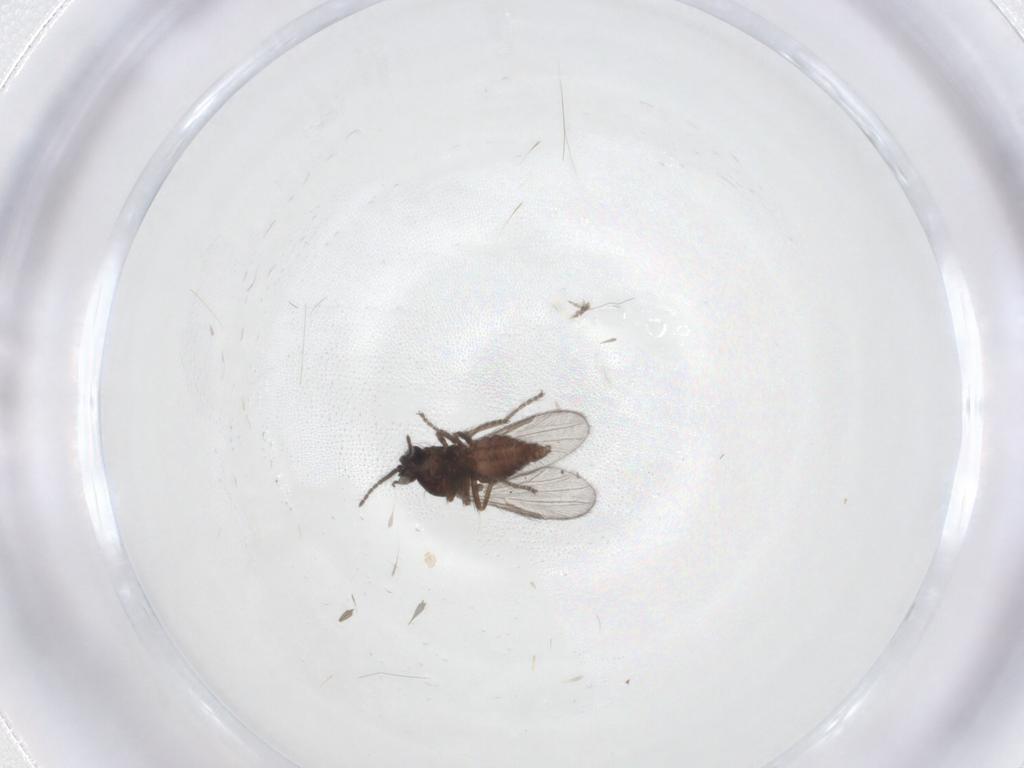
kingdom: Animalia
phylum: Arthropoda
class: Insecta
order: Diptera
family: Ceratopogonidae
